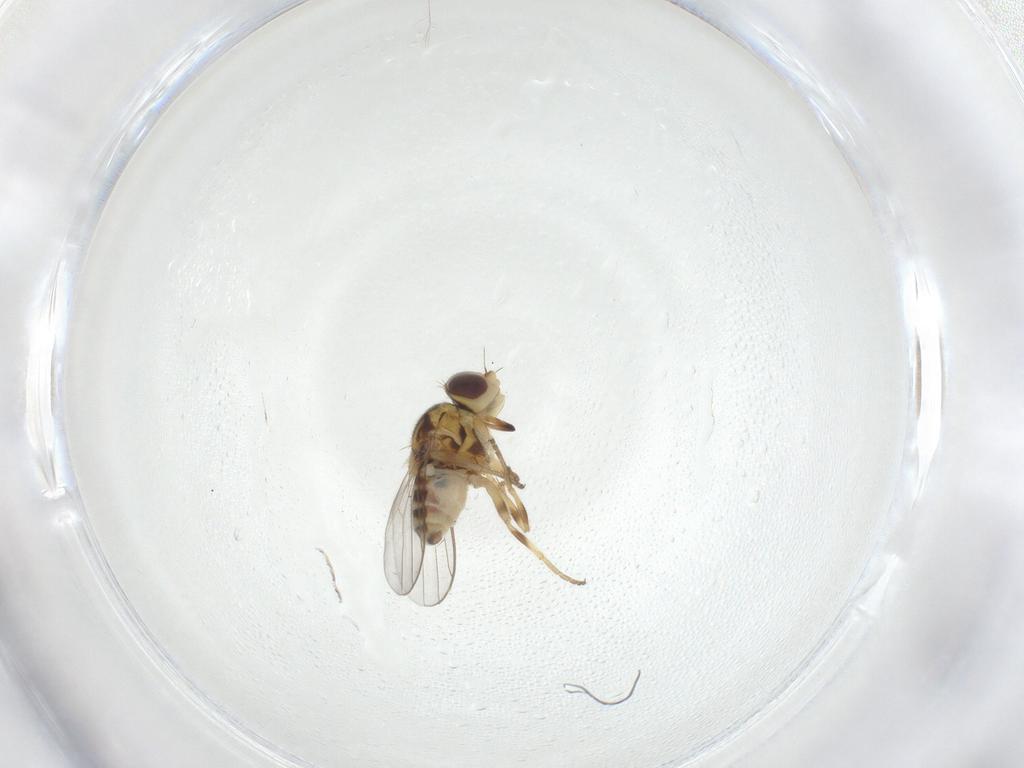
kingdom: Animalia
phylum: Arthropoda
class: Insecta
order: Diptera
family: Chloropidae
